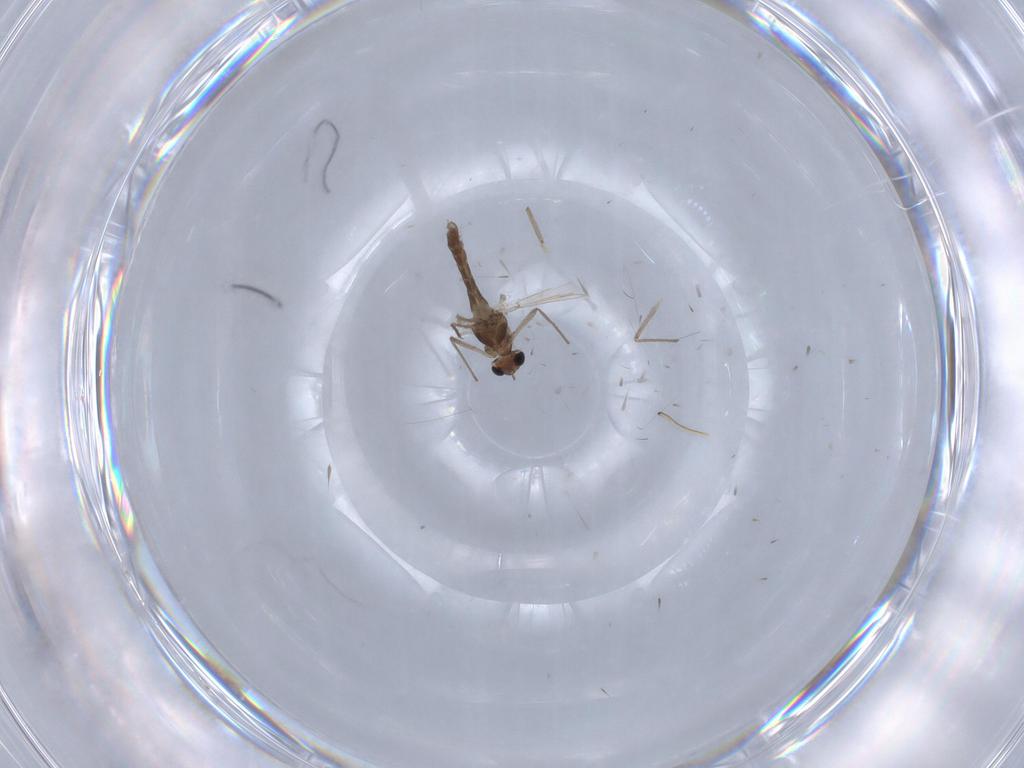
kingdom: Animalia
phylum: Arthropoda
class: Insecta
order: Diptera
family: Chironomidae
